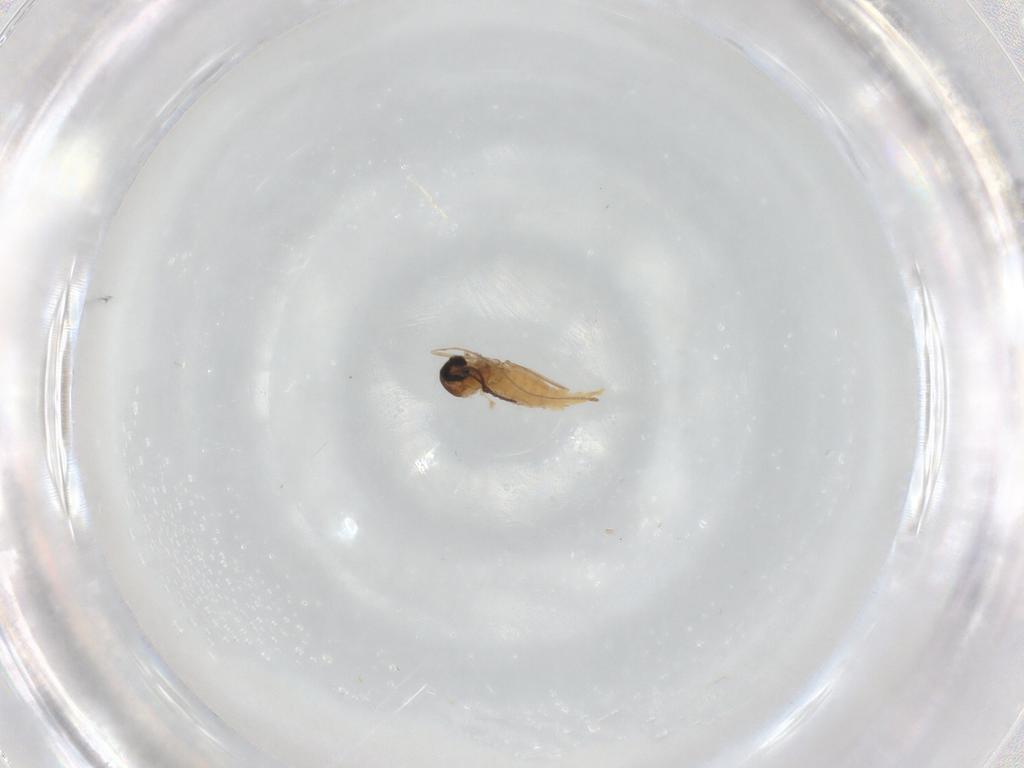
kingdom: Animalia
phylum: Arthropoda
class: Insecta
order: Diptera
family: Cecidomyiidae
